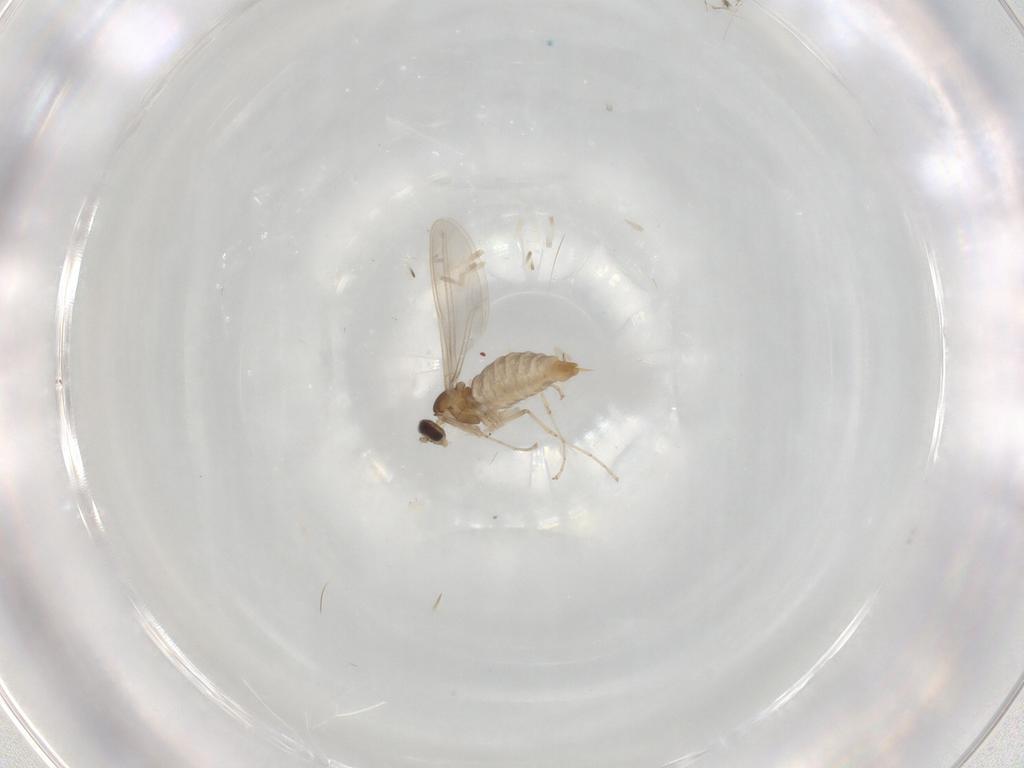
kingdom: Animalia
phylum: Arthropoda
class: Insecta
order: Diptera
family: Cecidomyiidae
